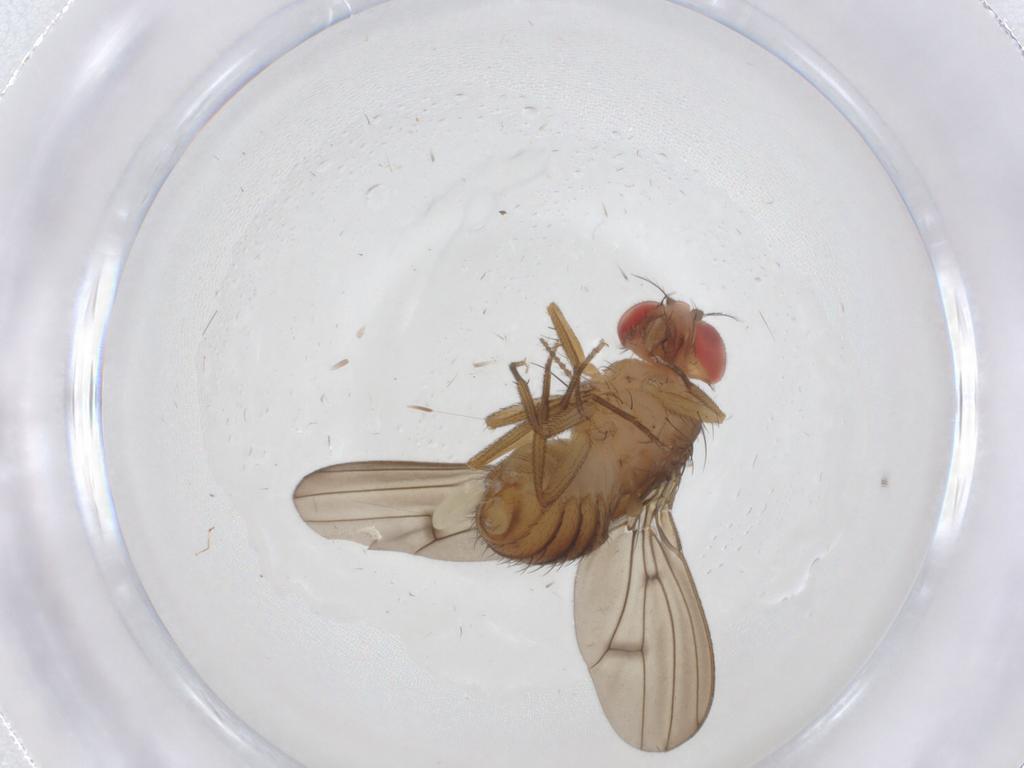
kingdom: Animalia
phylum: Arthropoda
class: Insecta
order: Diptera
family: Drosophilidae
